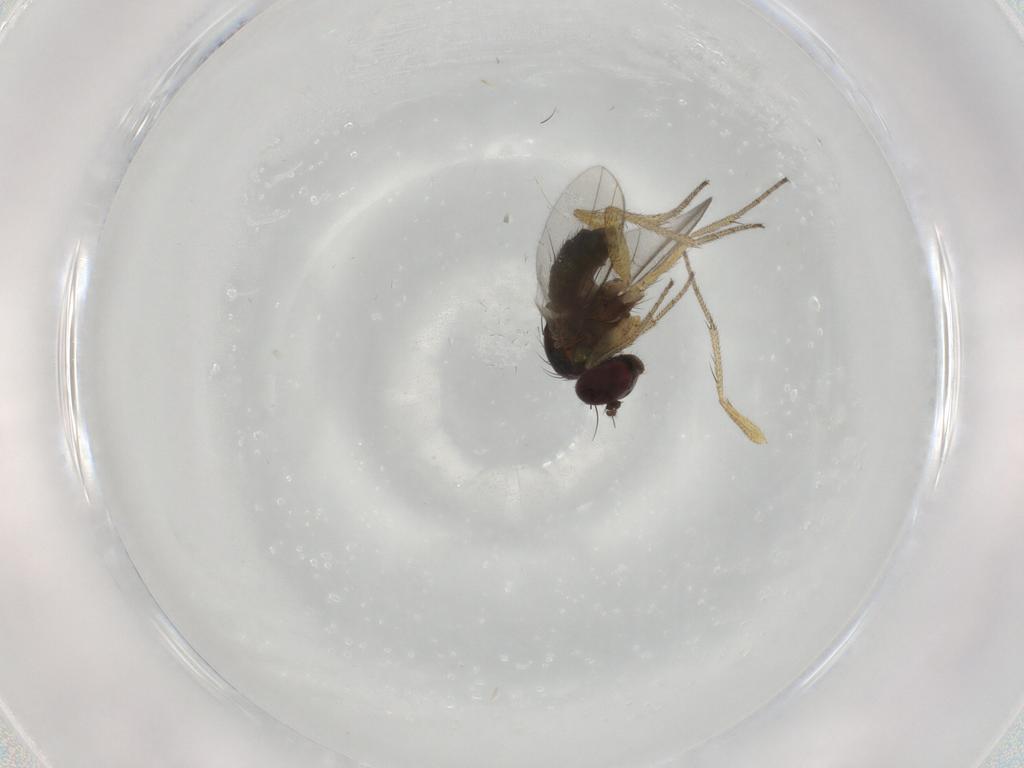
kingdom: Animalia
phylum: Arthropoda
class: Insecta
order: Diptera
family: Dolichopodidae
